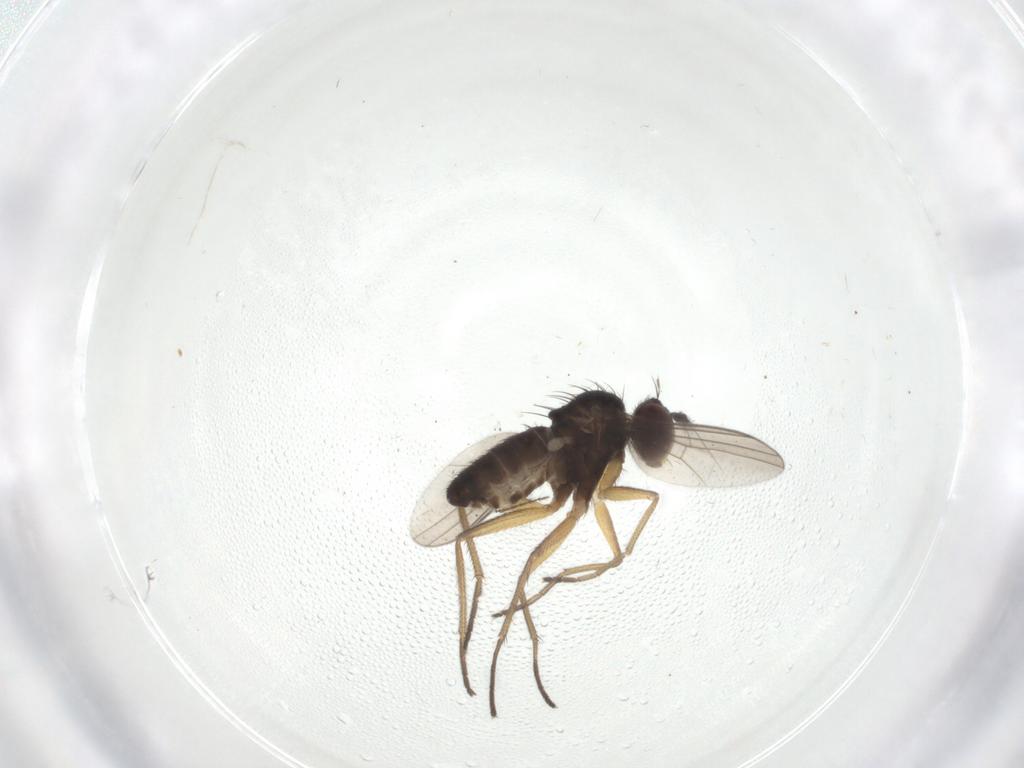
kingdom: Animalia
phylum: Arthropoda
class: Insecta
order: Diptera
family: Dolichopodidae
